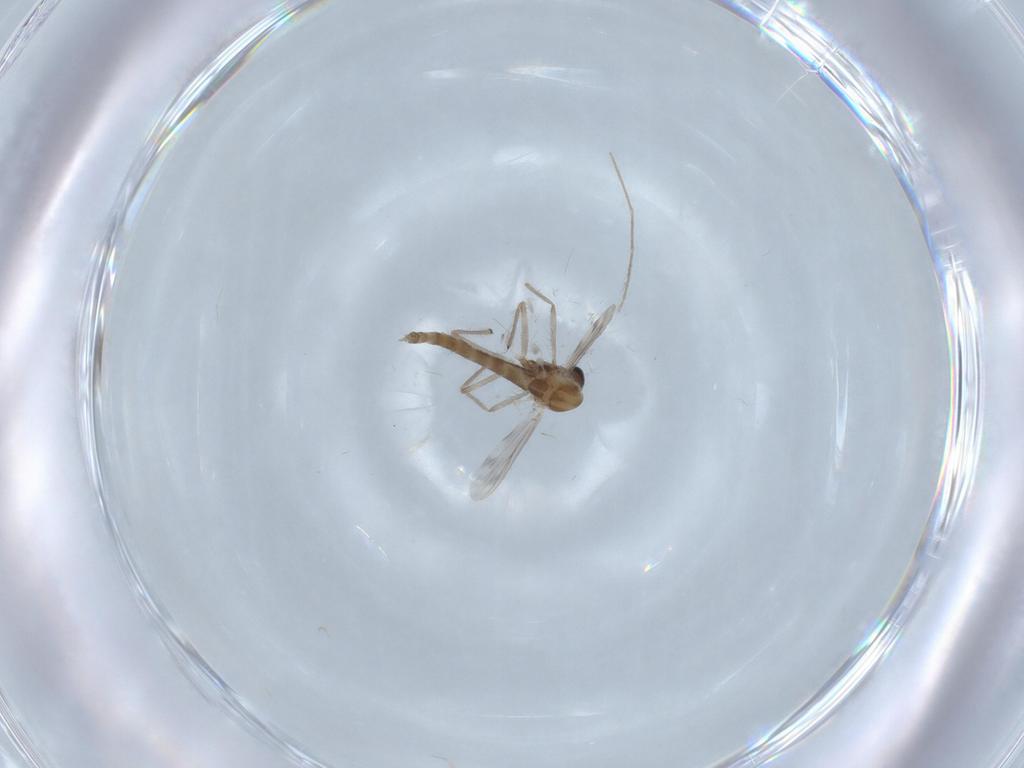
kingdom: Animalia
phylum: Arthropoda
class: Insecta
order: Diptera
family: Chironomidae
